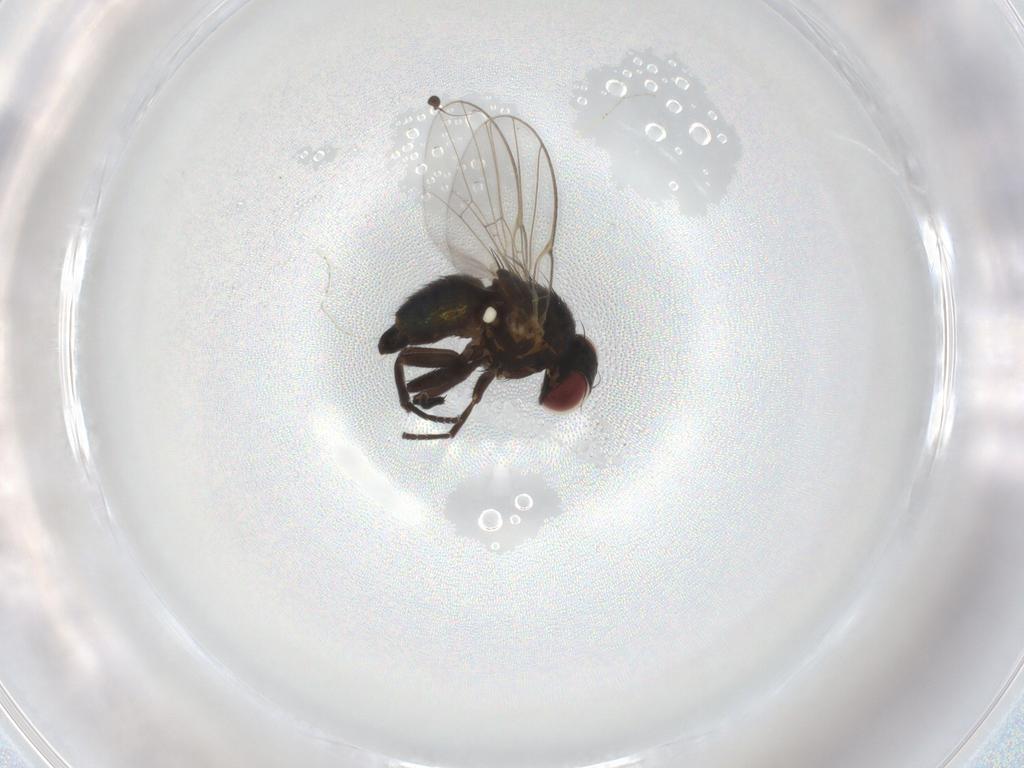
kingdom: Animalia
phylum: Arthropoda
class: Insecta
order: Diptera
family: Agromyzidae
